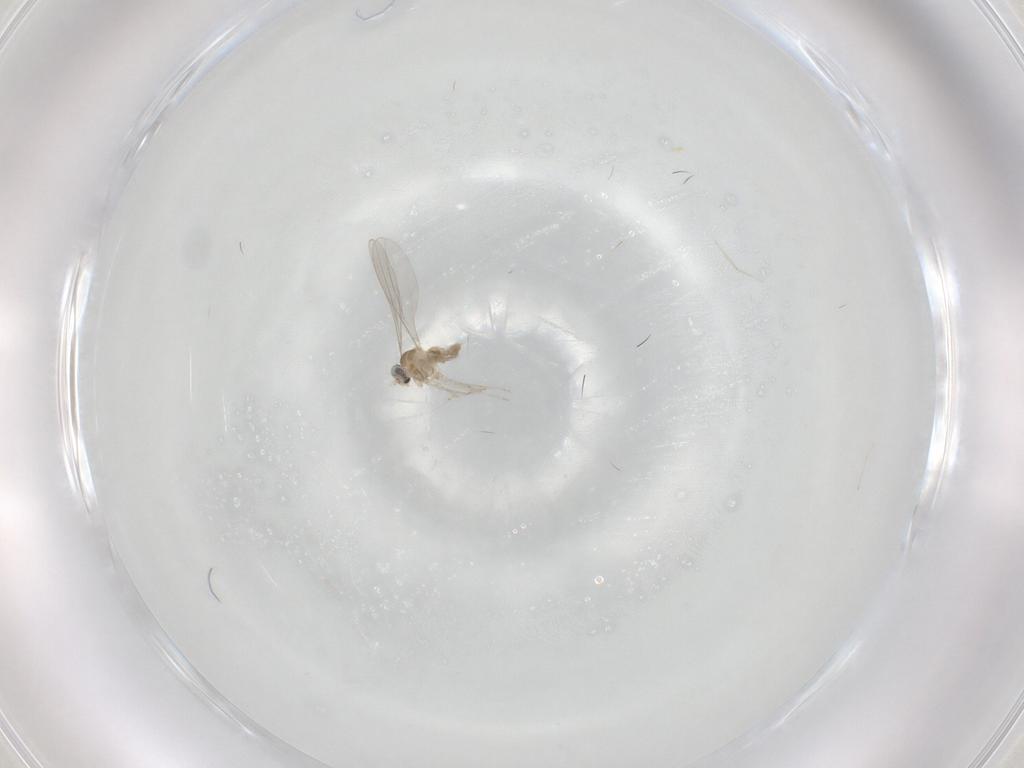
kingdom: Animalia
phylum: Arthropoda
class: Insecta
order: Diptera
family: Cecidomyiidae
